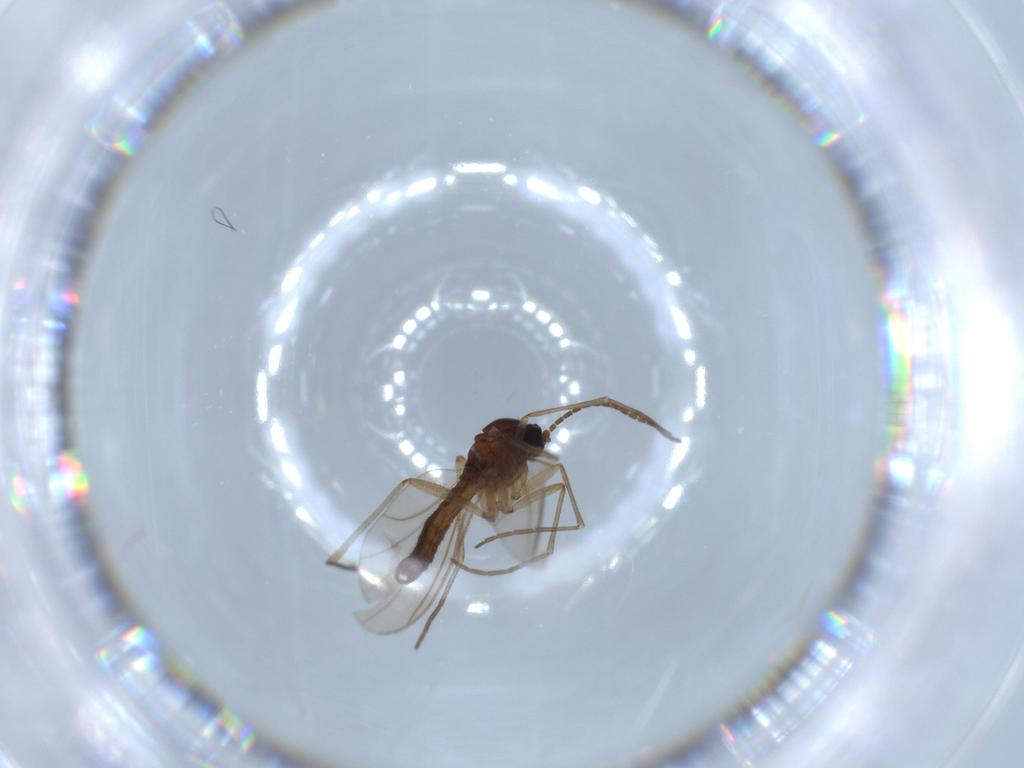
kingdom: Animalia
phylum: Arthropoda
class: Insecta
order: Diptera
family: Sciaridae
